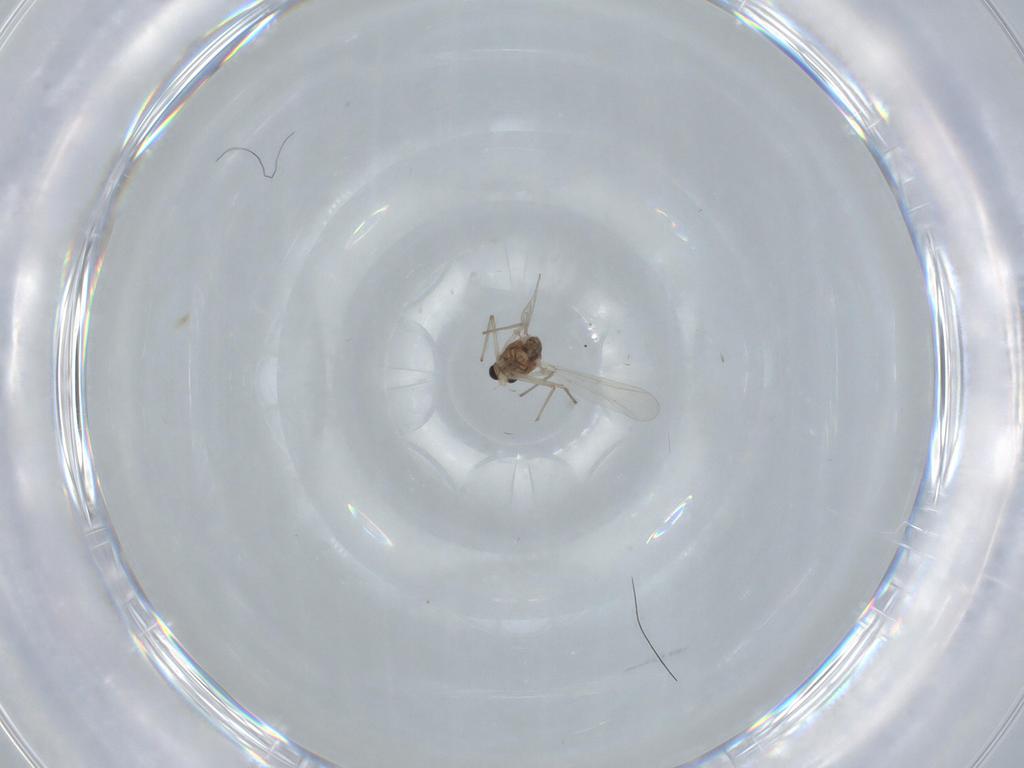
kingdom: Animalia
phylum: Arthropoda
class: Insecta
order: Diptera
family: Chironomidae
